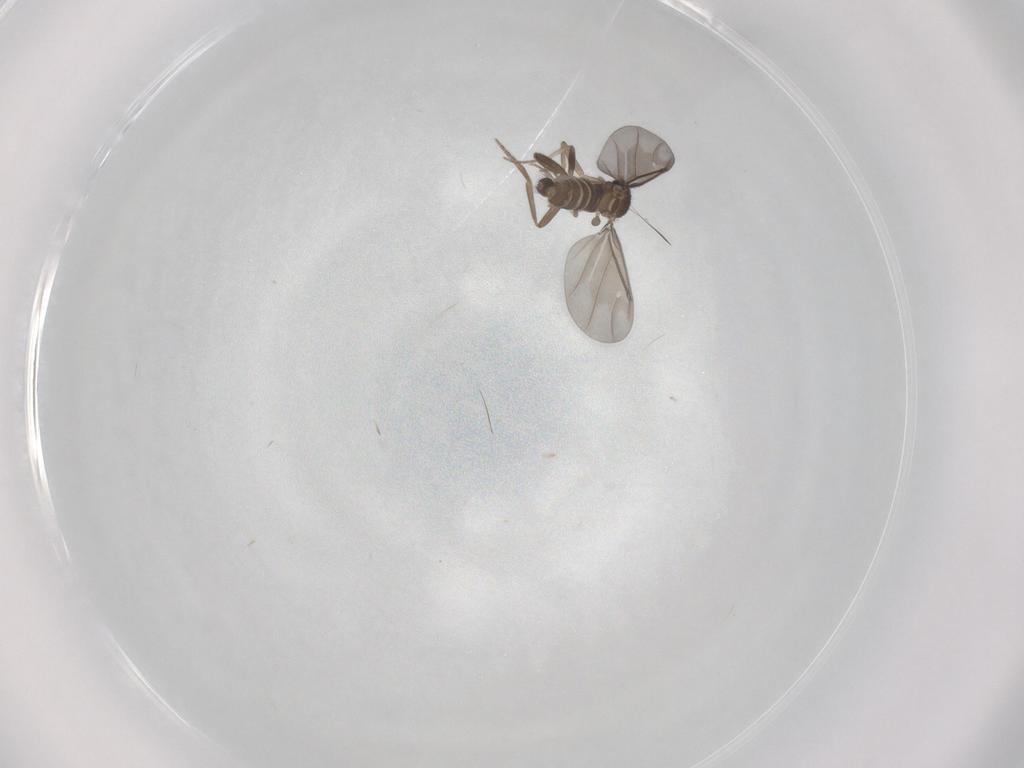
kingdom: Animalia
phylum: Arthropoda
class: Insecta
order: Diptera
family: Phoridae
